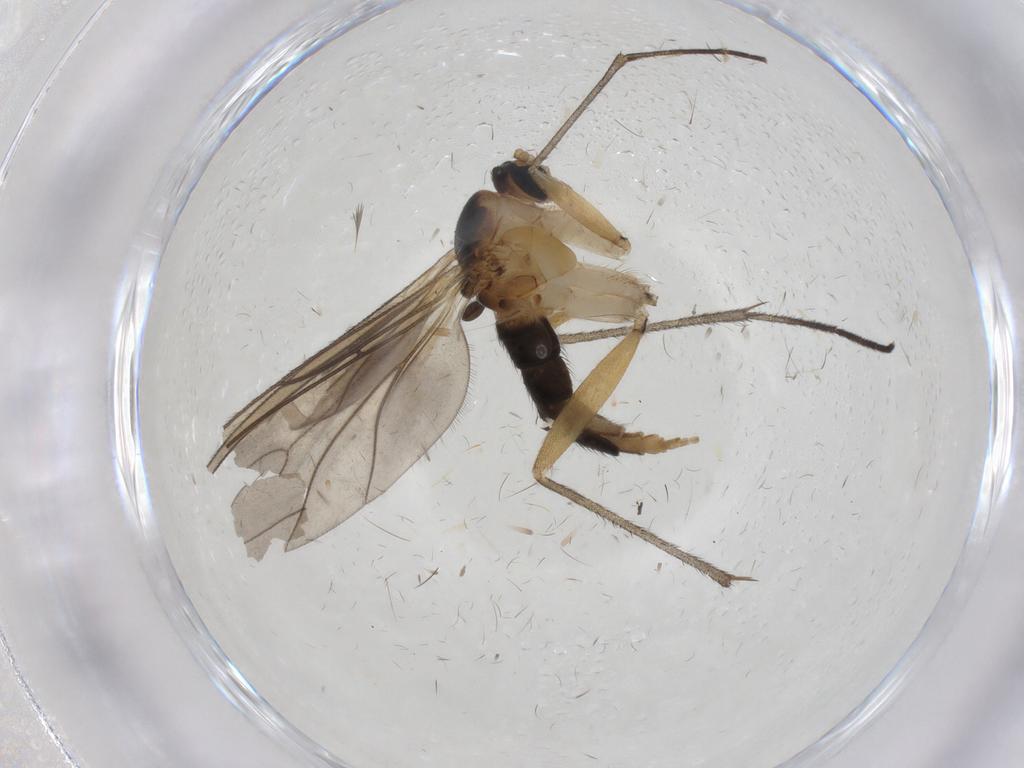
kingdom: Animalia
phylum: Arthropoda
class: Insecta
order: Diptera
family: Sciaridae
